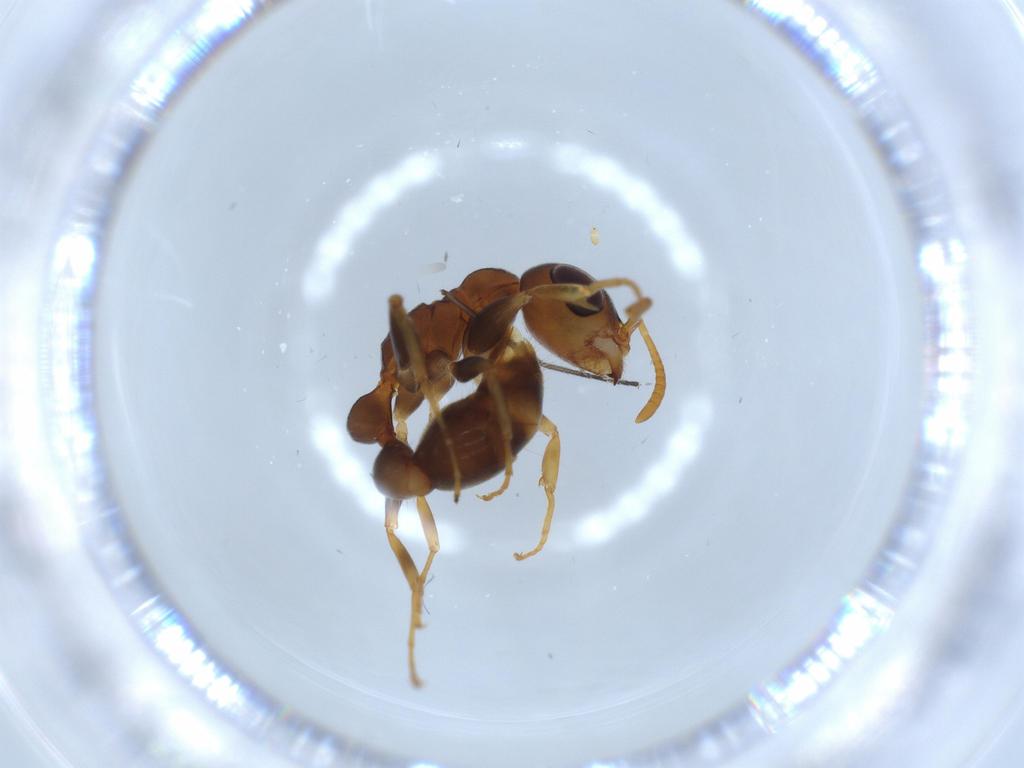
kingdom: Animalia
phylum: Arthropoda
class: Insecta
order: Hymenoptera
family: Formicidae
